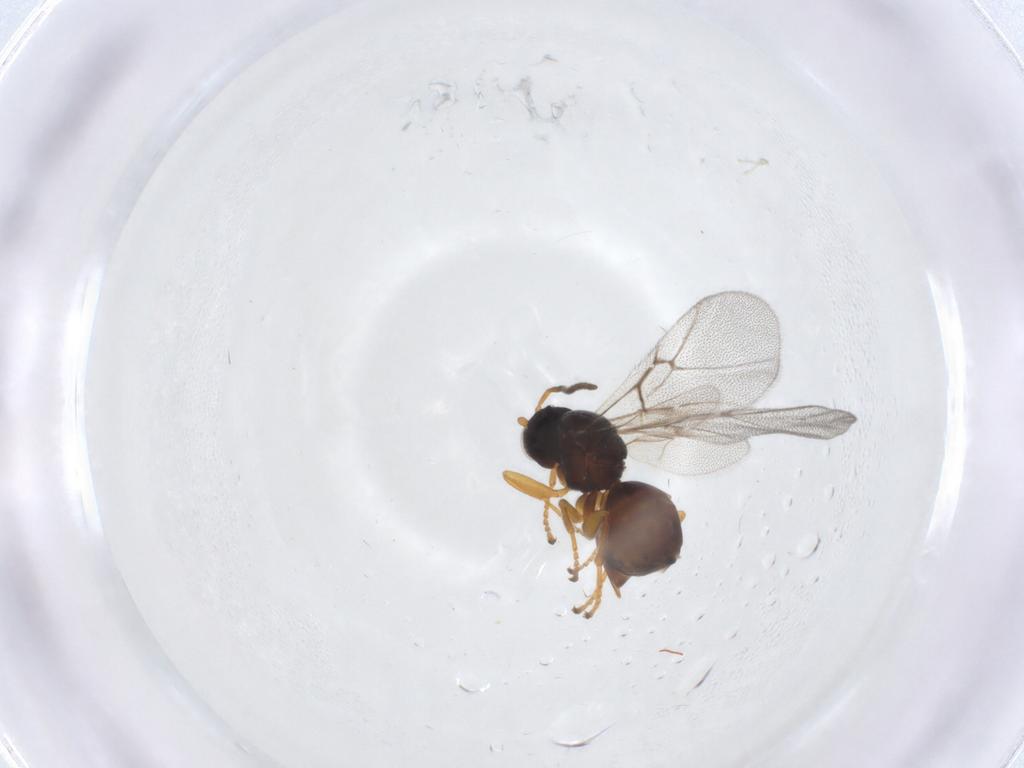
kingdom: Animalia
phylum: Arthropoda
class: Insecta
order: Hymenoptera
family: Cynipidae
